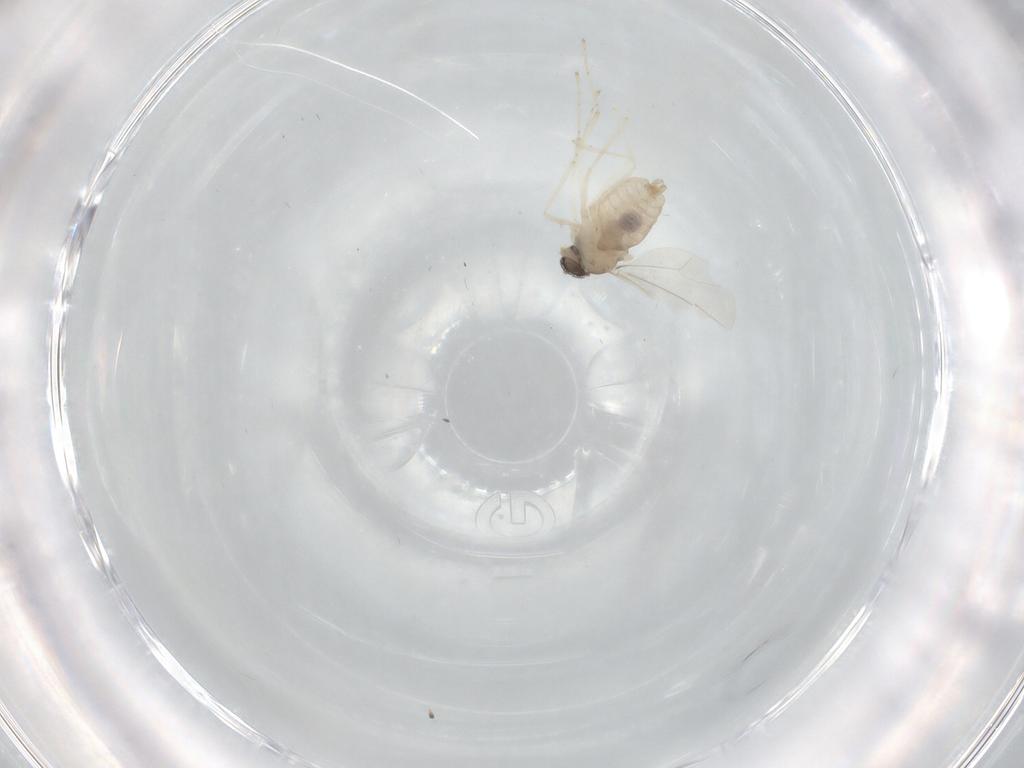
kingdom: Animalia
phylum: Arthropoda
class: Insecta
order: Diptera
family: Cecidomyiidae
